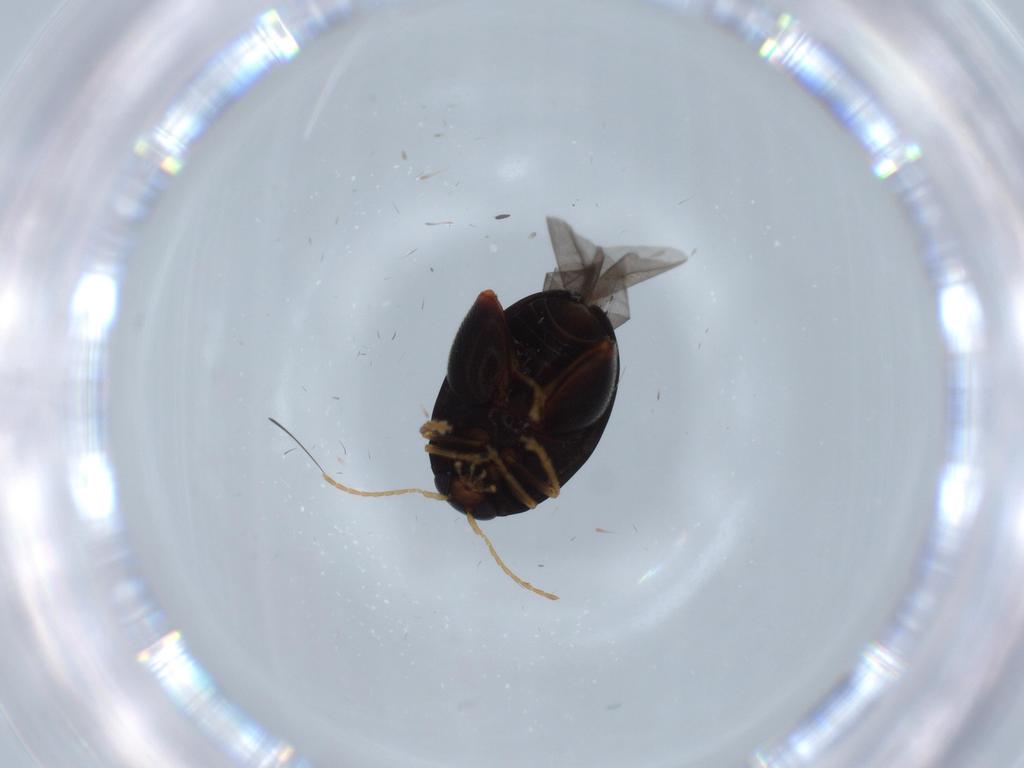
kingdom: Animalia
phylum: Arthropoda
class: Insecta
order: Coleoptera
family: Chrysomelidae
